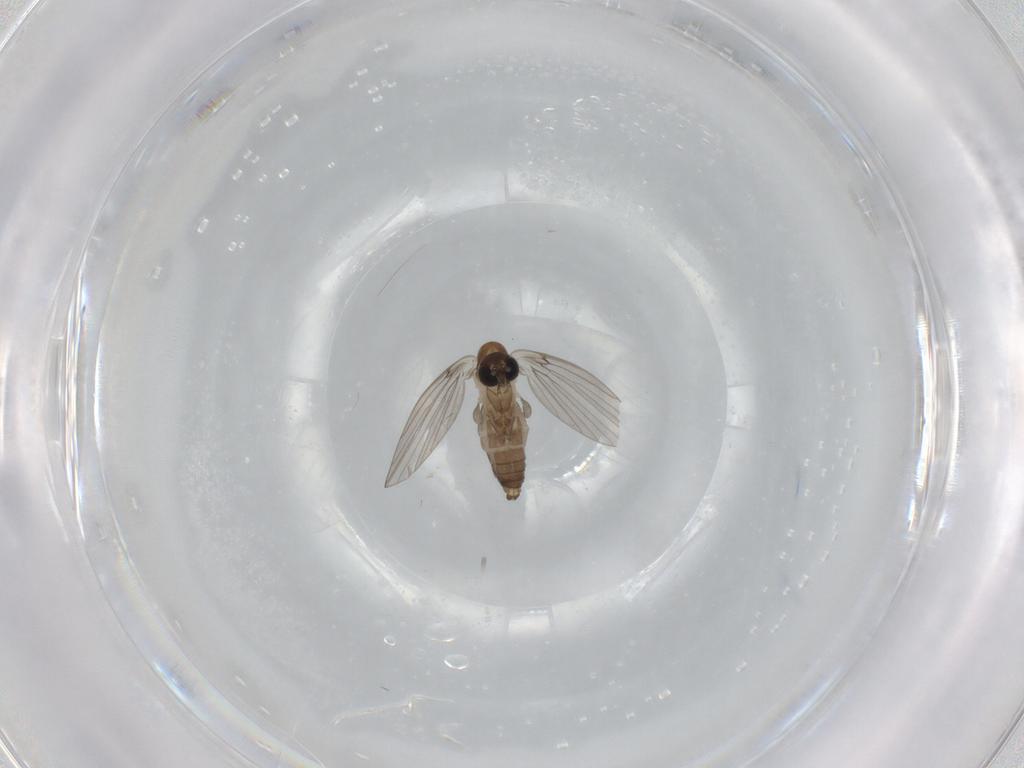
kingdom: Animalia
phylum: Arthropoda
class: Insecta
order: Diptera
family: Psychodidae
